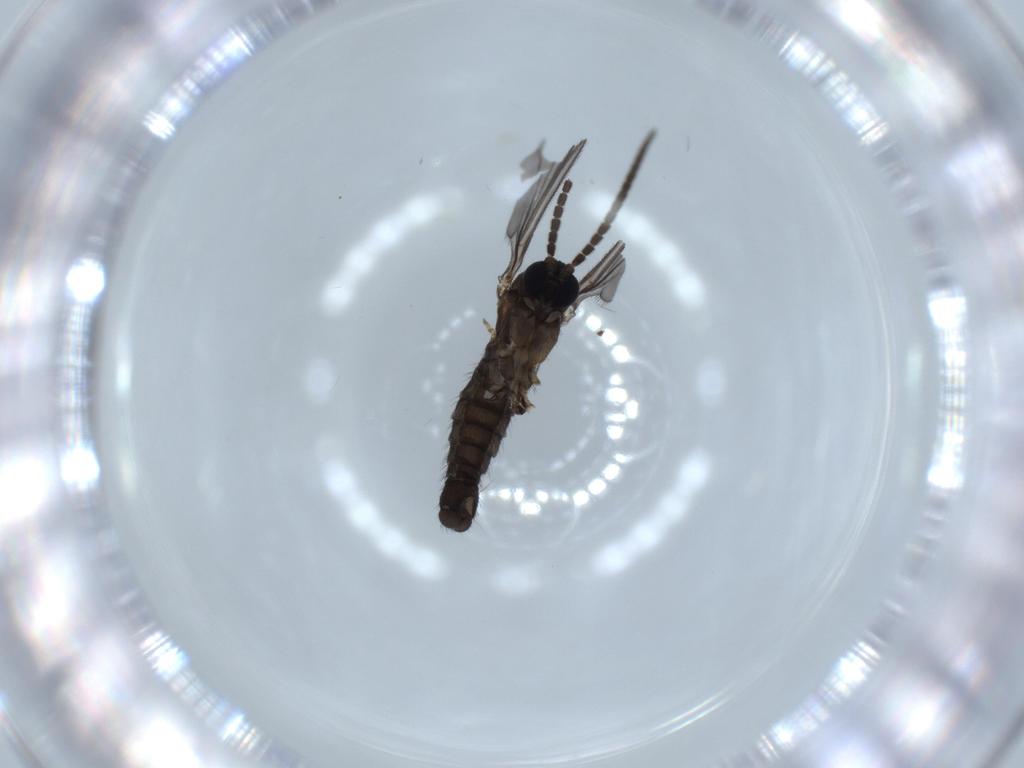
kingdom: Animalia
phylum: Arthropoda
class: Insecta
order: Diptera
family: Sciaridae
